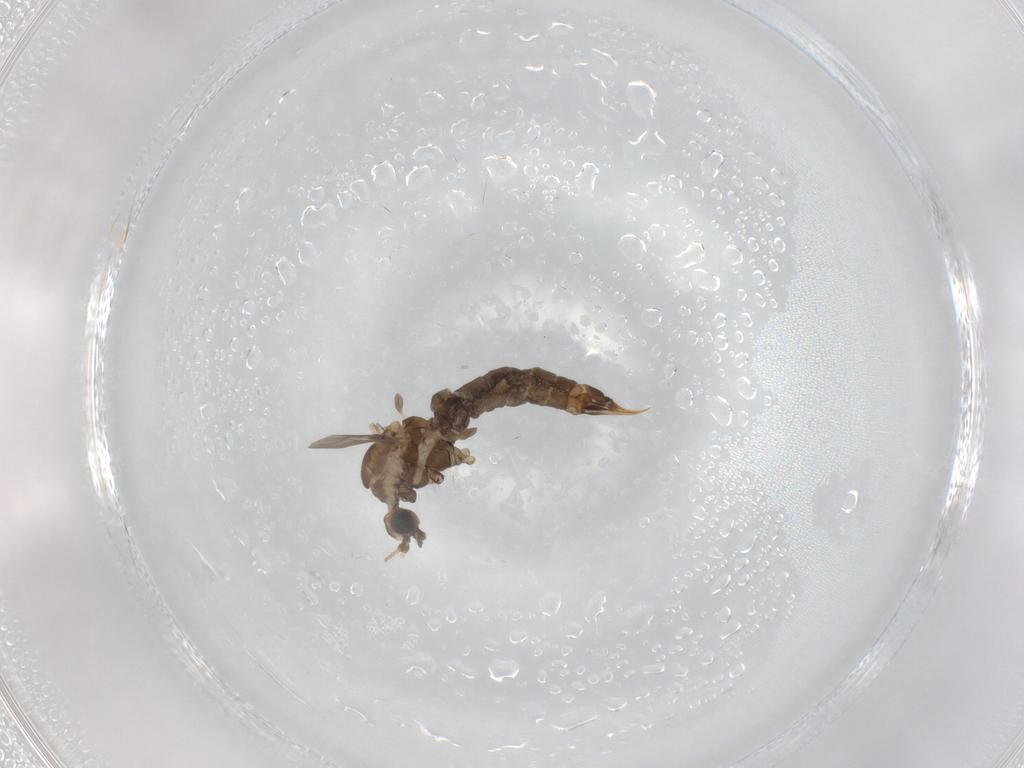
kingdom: Animalia
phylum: Arthropoda
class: Insecta
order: Diptera
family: Limoniidae
